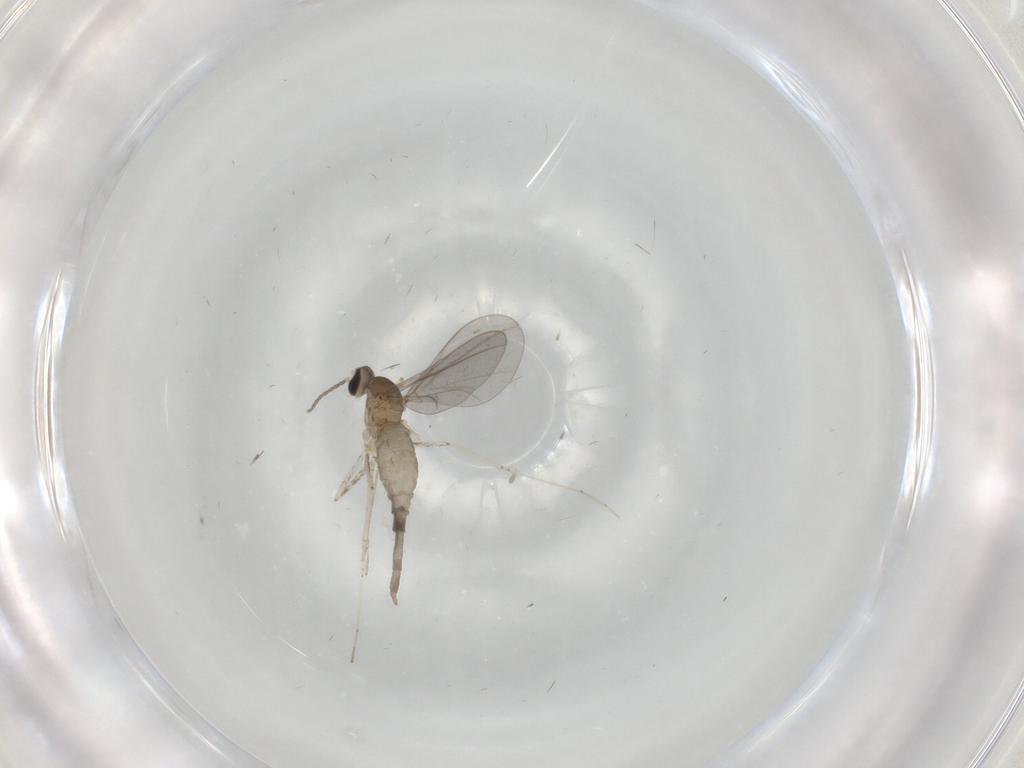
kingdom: Animalia
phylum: Arthropoda
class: Insecta
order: Diptera
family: Cecidomyiidae
